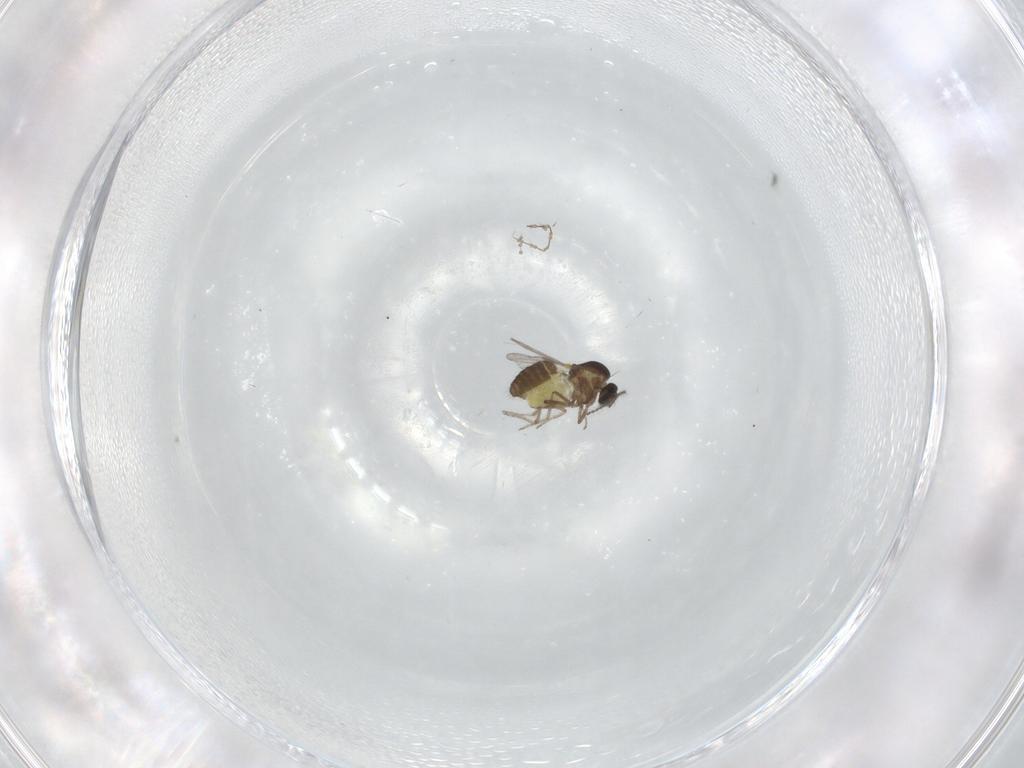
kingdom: Animalia
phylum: Arthropoda
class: Insecta
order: Diptera
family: Ceratopogonidae
